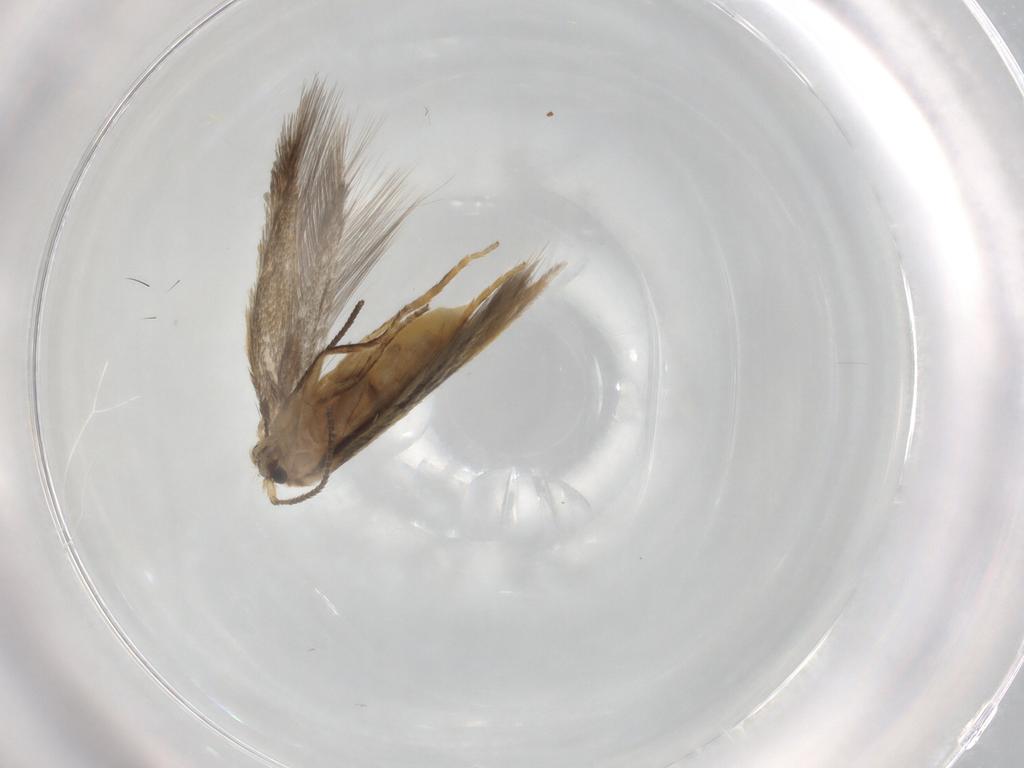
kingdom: Animalia
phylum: Arthropoda
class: Insecta
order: Lepidoptera
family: Nepticulidae
